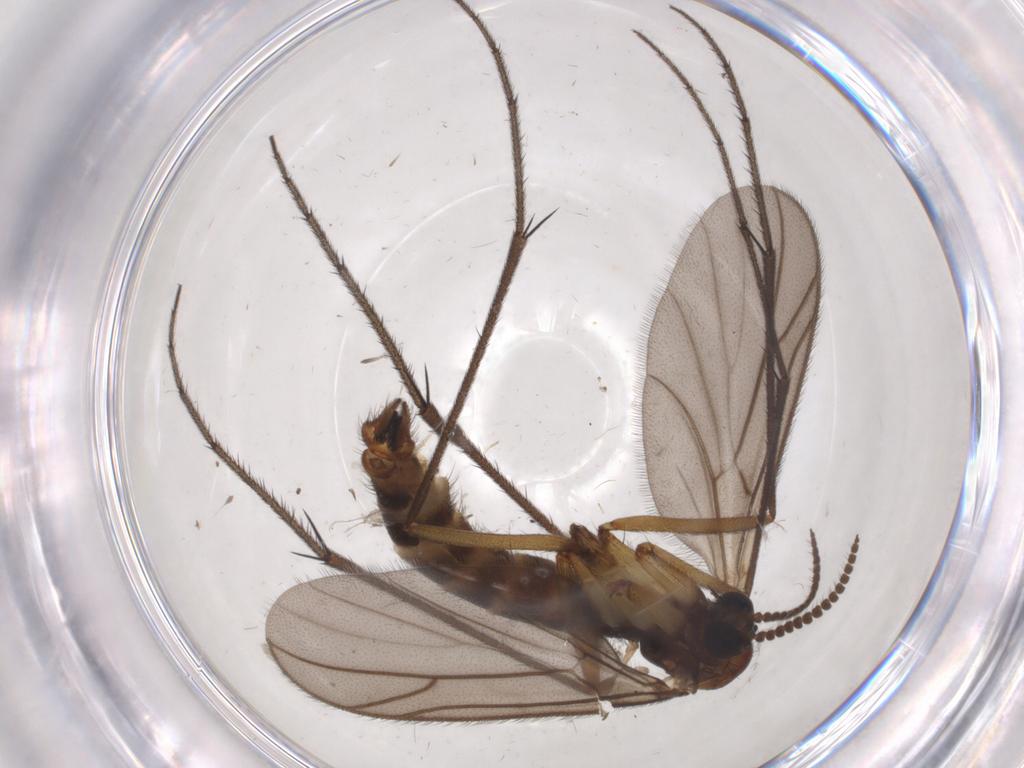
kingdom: Animalia
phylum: Arthropoda
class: Insecta
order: Diptera
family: Ditomyiidae
